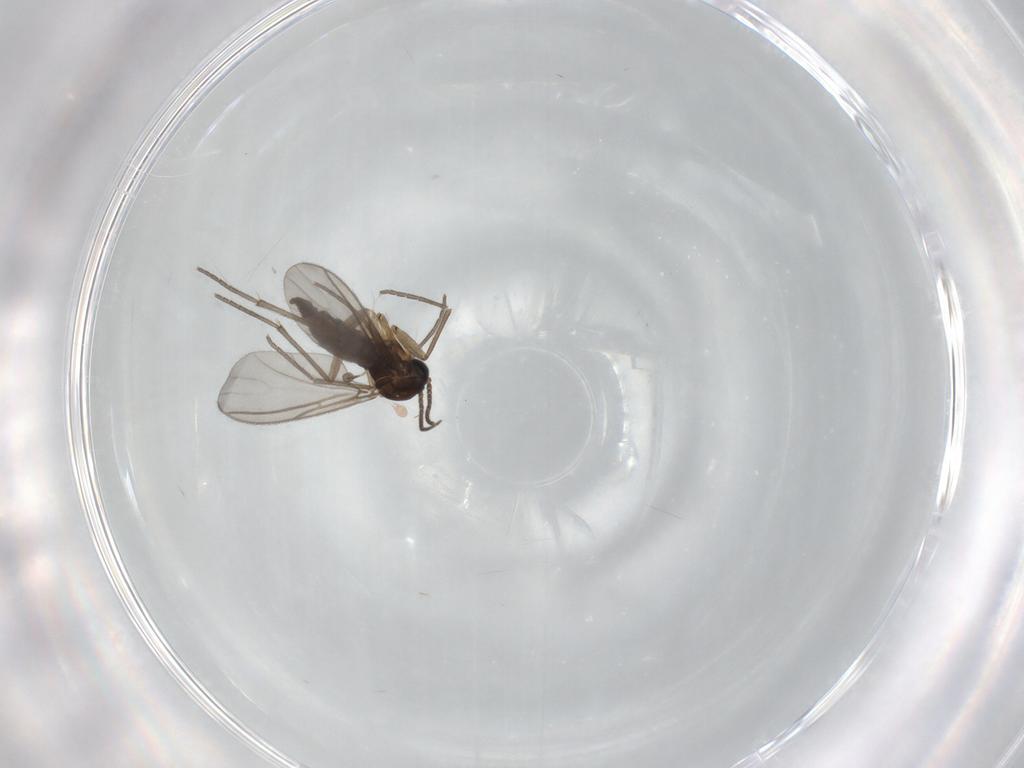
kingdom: Animalia
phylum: Arthropoda
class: Insecta
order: Diptera
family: Sciaridae
